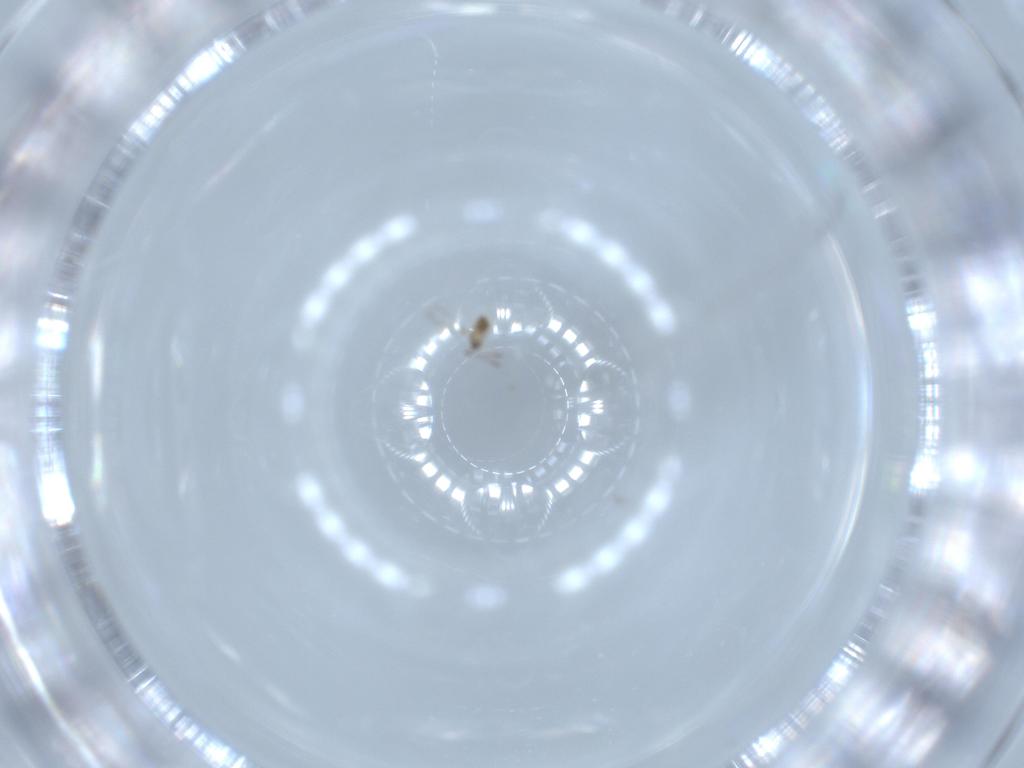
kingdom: Animalia
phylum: Arthropoda
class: Insecta
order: Hymenoptera
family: Mymaridae
